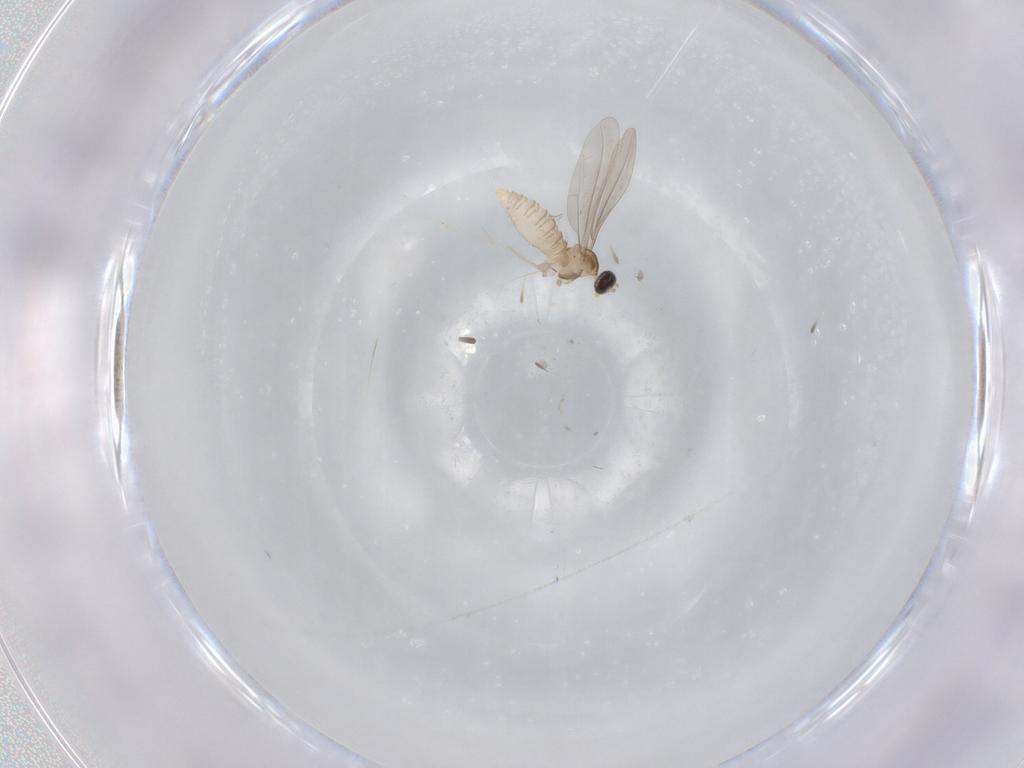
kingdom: Animalia
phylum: Arthropoda
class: Insecta
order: Diptera
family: Cecidomyiidae
